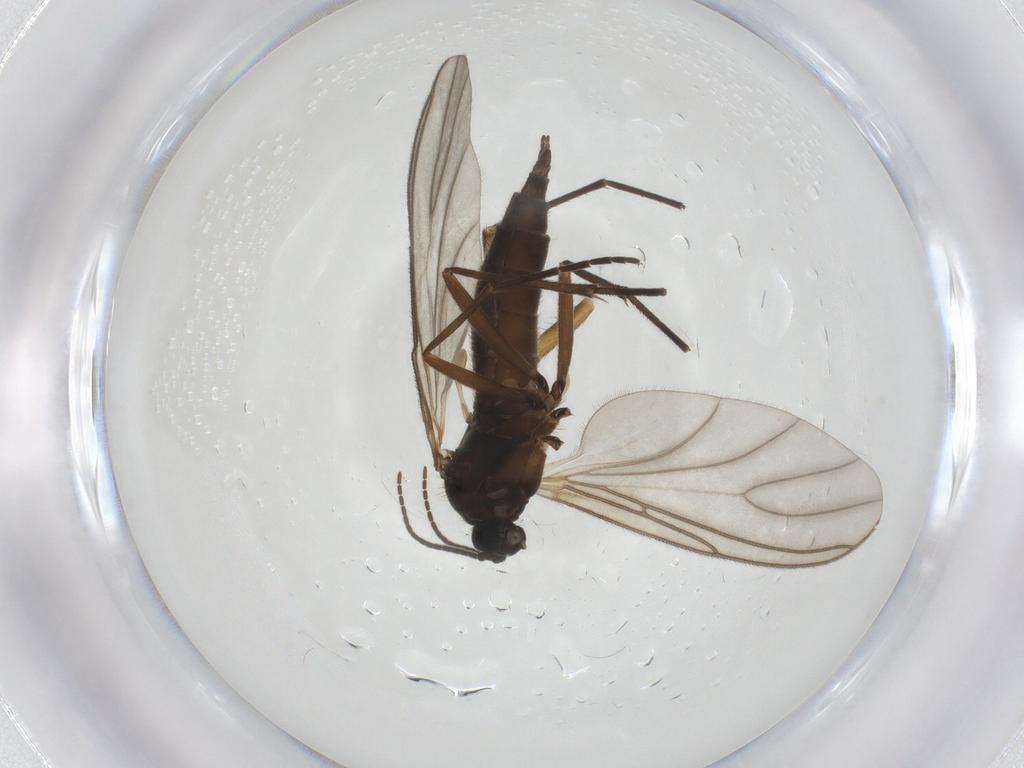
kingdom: Animalia
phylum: Arthropoda
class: Insecta
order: Diptera
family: Sciaridae
